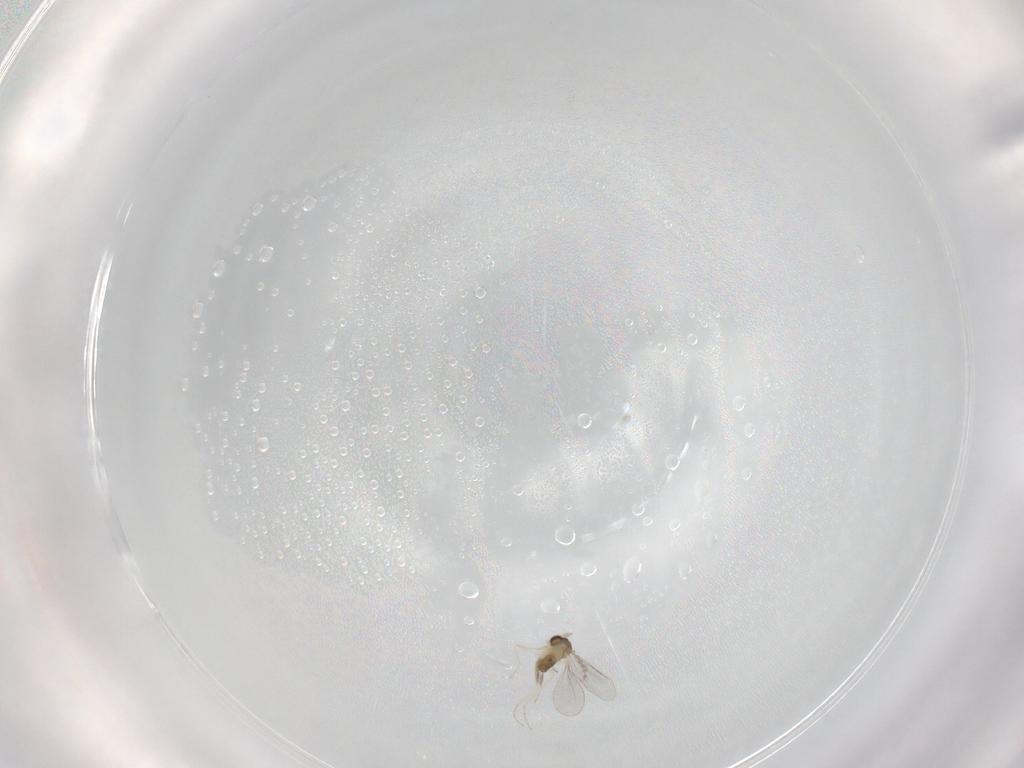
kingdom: Animalia
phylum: Arthropoda
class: Insecta
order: Diptera
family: Cecidomyiidae
